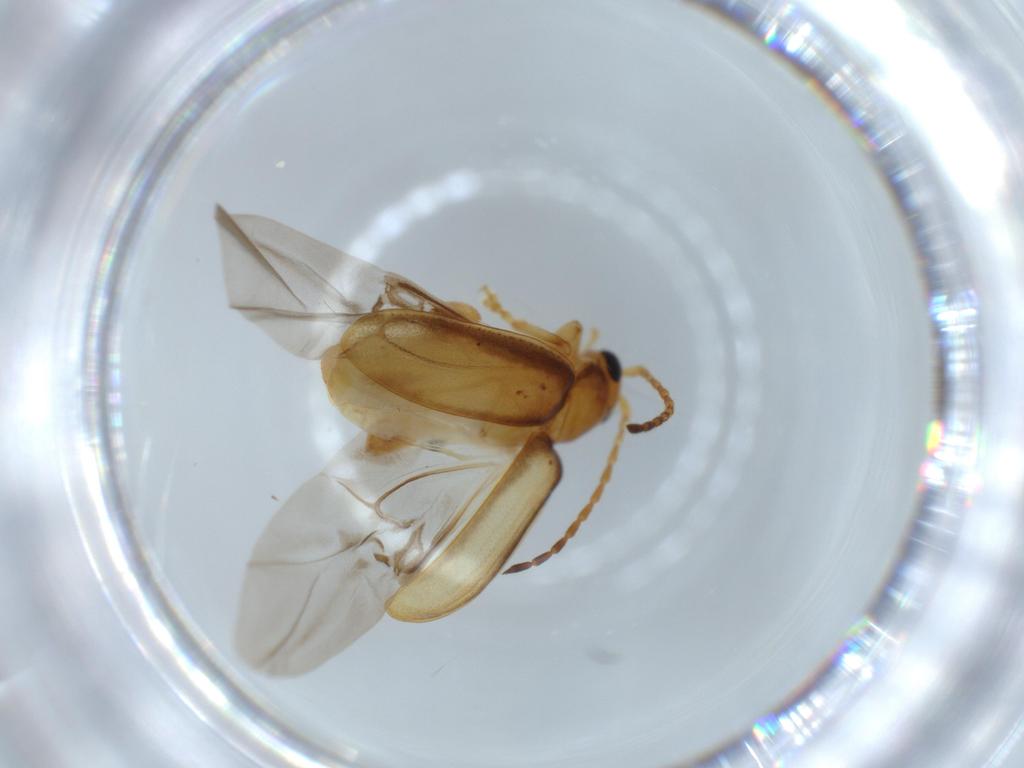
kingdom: Animalia
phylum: Arthropoda
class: Insecta
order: Coleoptera
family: Chrysomelidae
